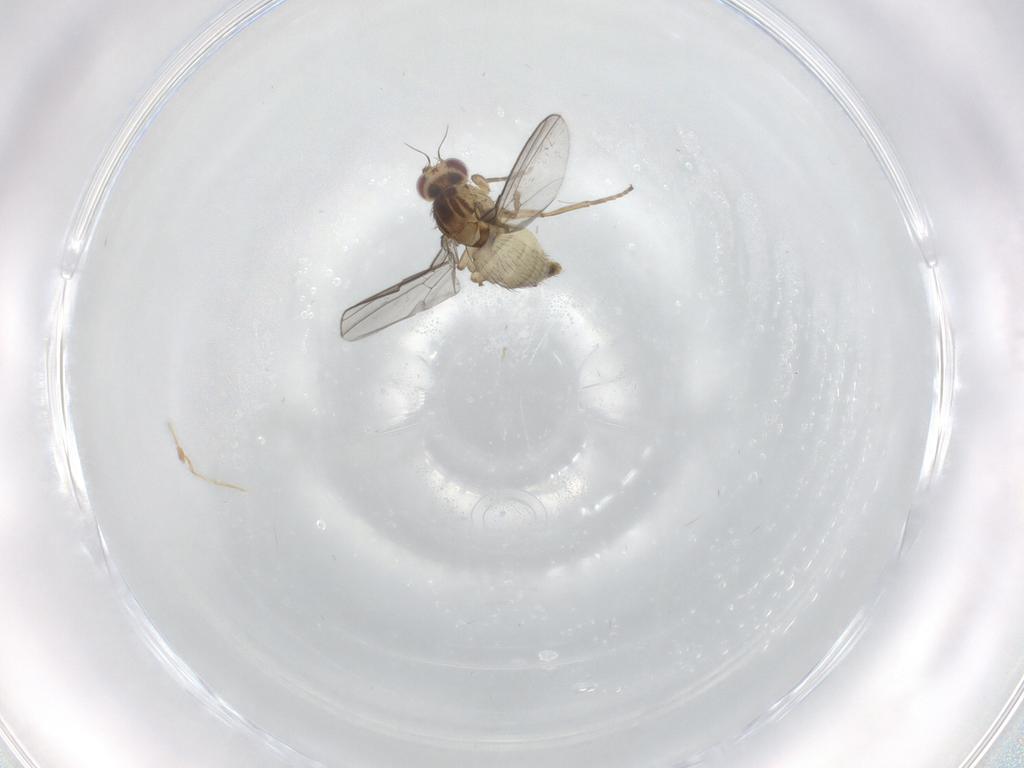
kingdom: Animalia
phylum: Arthropoda
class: Insecta
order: Diptera
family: Agromyzidae
